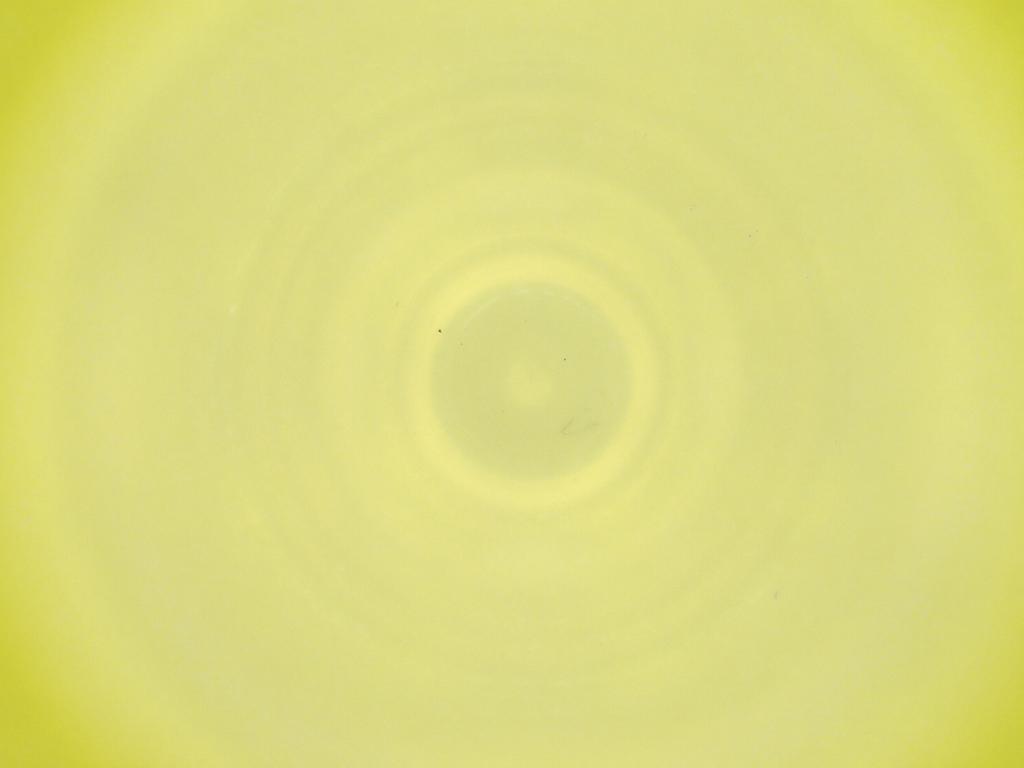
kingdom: Animalia
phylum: Arthropoda
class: Insecta
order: Diptera
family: Cecidomyiidae
